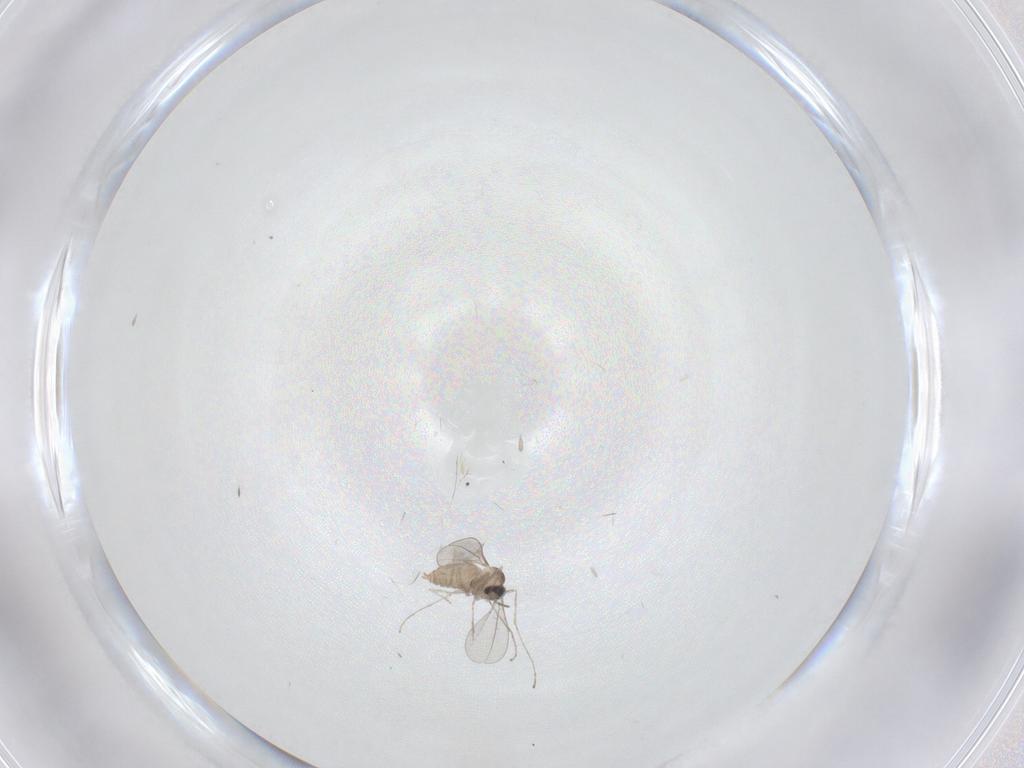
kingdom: Animalia
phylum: Arthropoda
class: Insecta
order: Diptera
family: Cecidomyiidae
